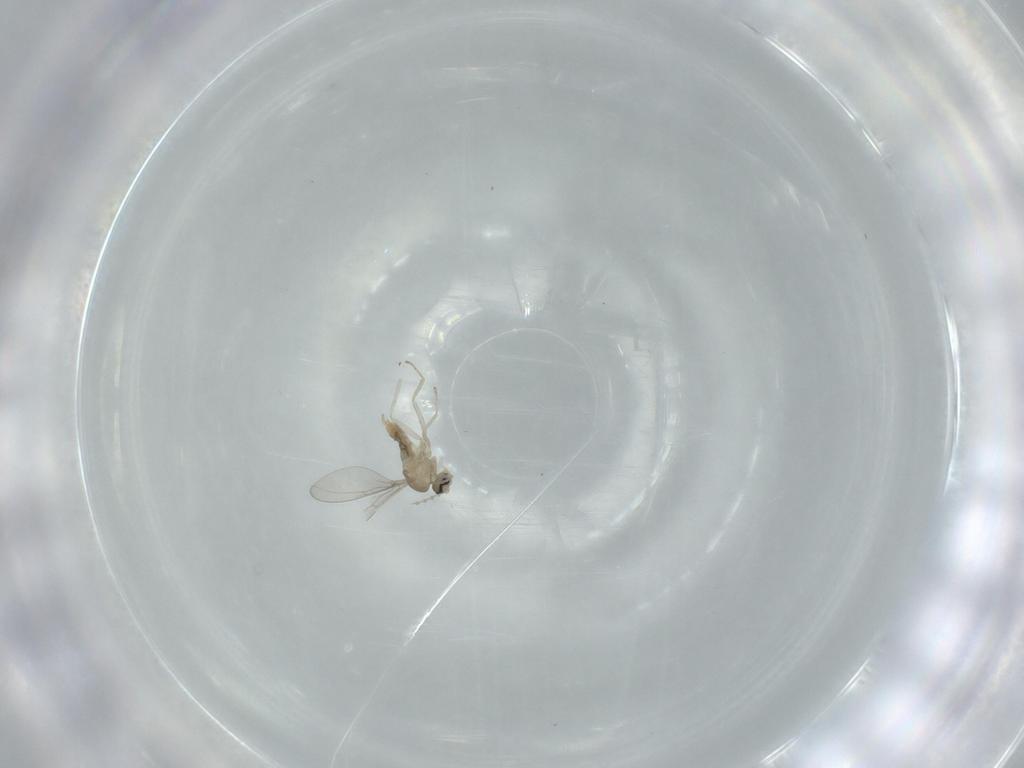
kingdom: Animalia
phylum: Arthropoda
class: Insecta
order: Diptera
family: Cecidomyiidae
